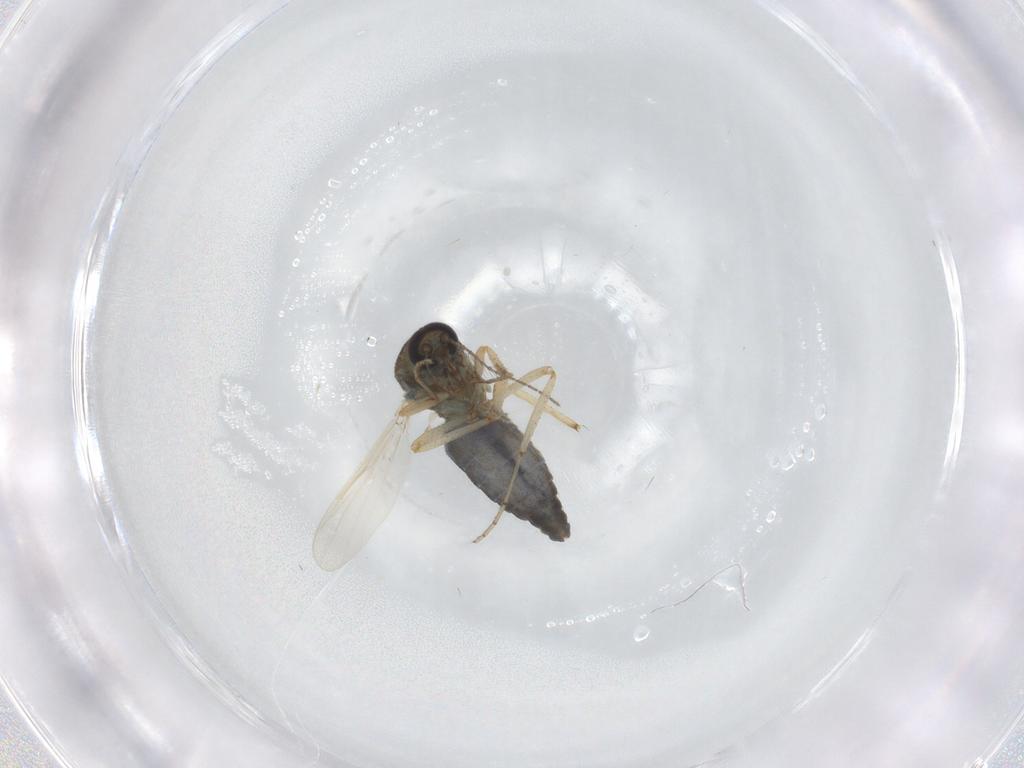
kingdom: Animalia
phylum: Arthropoda
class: Insecta
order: Diptera
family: Ceratopogonidae
